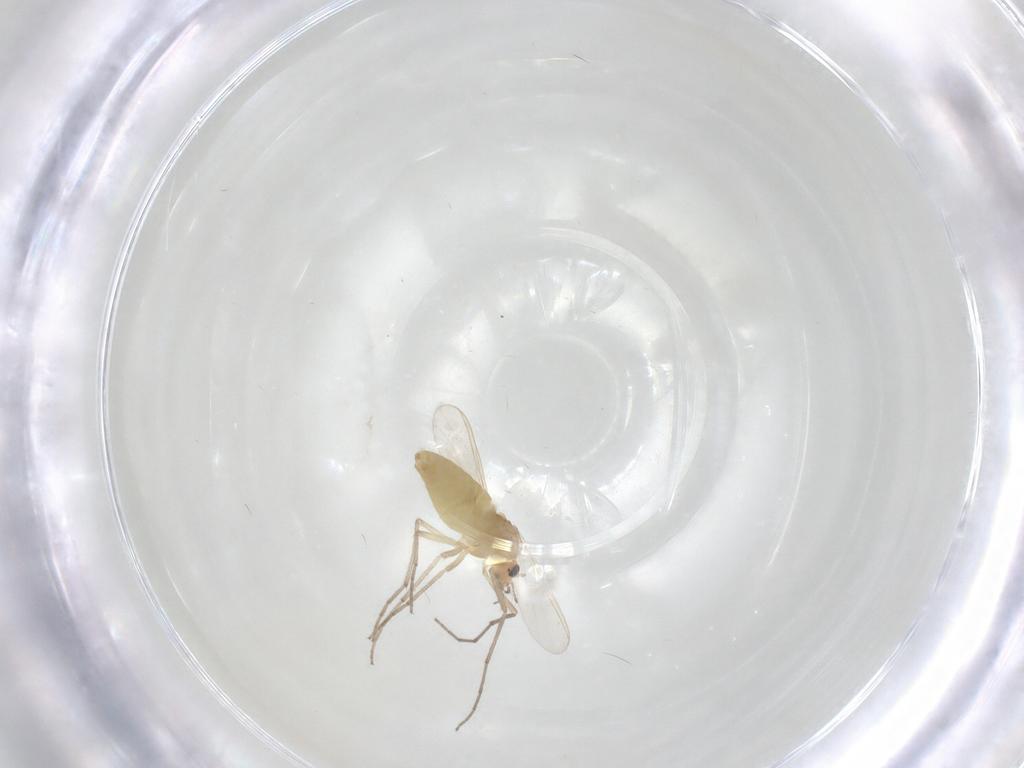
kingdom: Animalia
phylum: Arthropoda
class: Insecta
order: Diptera
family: Chironomidae
